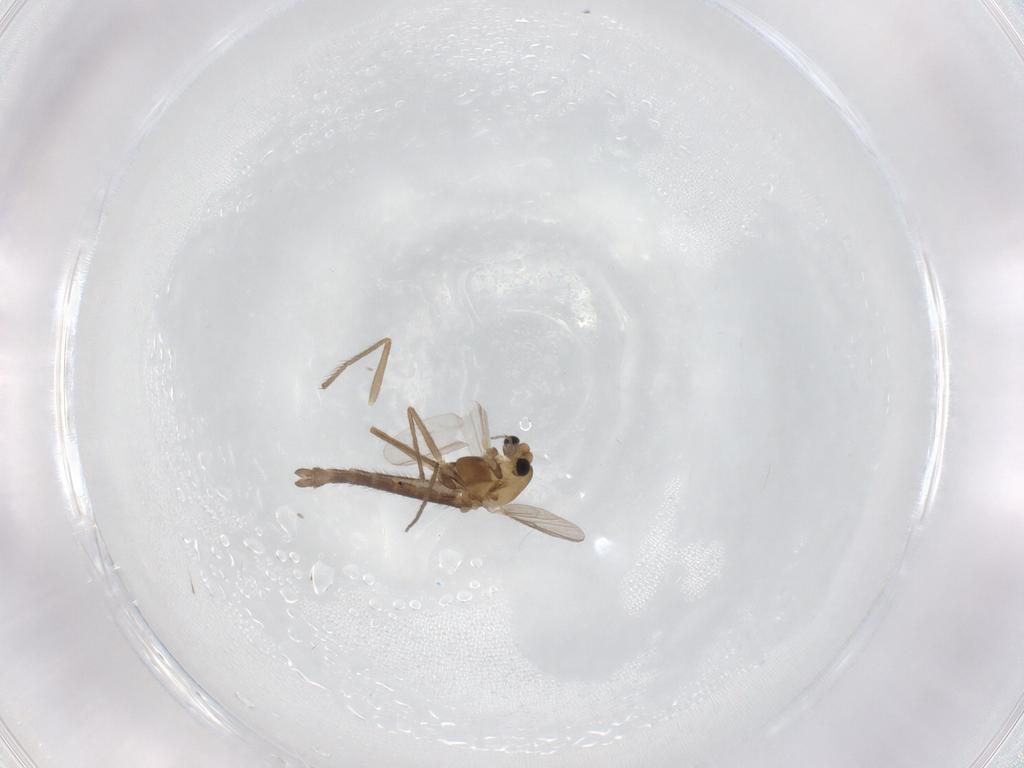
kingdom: Animalia
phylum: Arthropoda
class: Insecta
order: Diptera
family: Chironomidae
